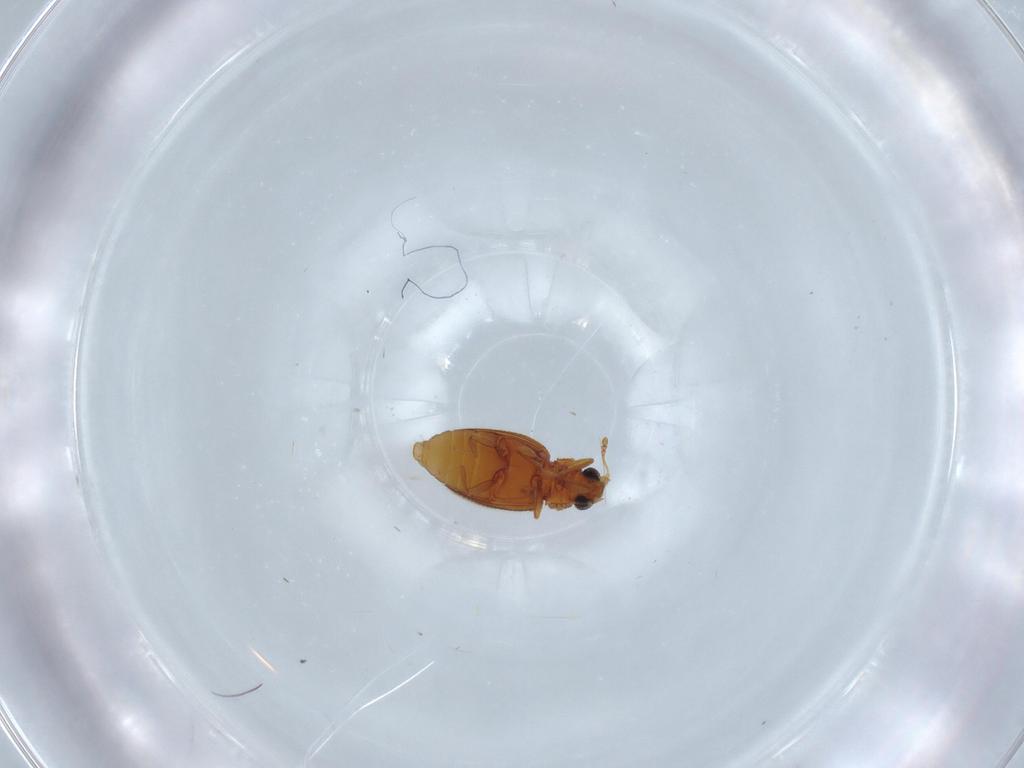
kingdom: Animalia
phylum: Arthropoda
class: Insecta
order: Coleoptera
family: Latridiidae
